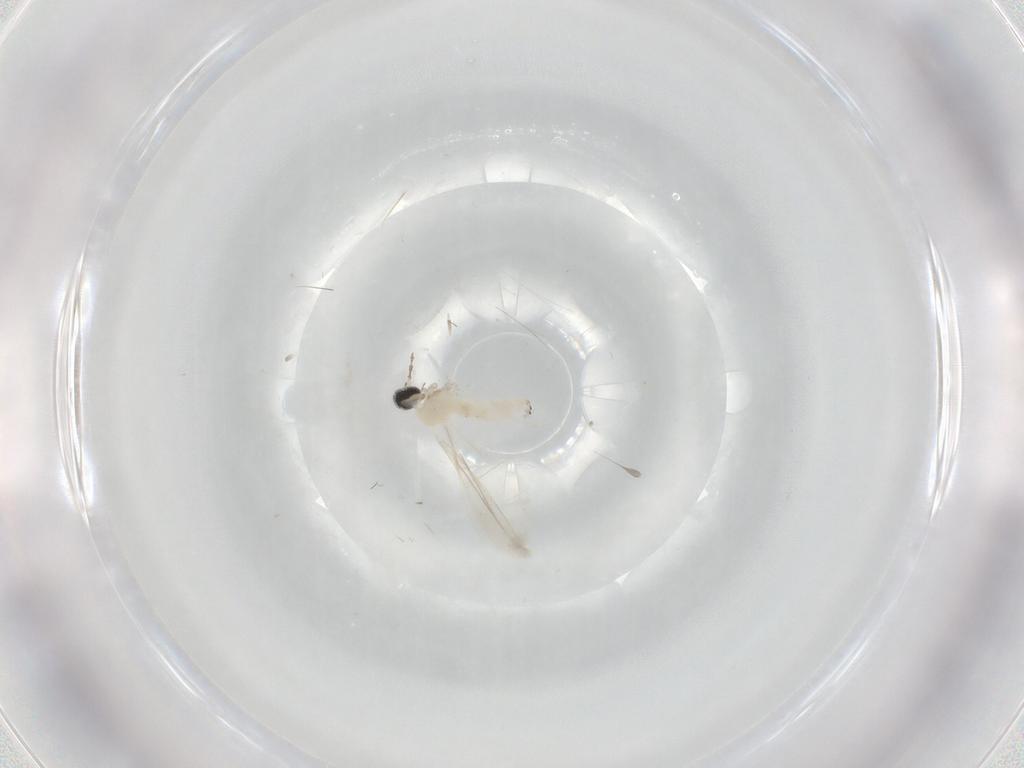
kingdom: Animalia
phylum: Arthropoda
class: Insecta
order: Diptera
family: Cecidomyiidae
